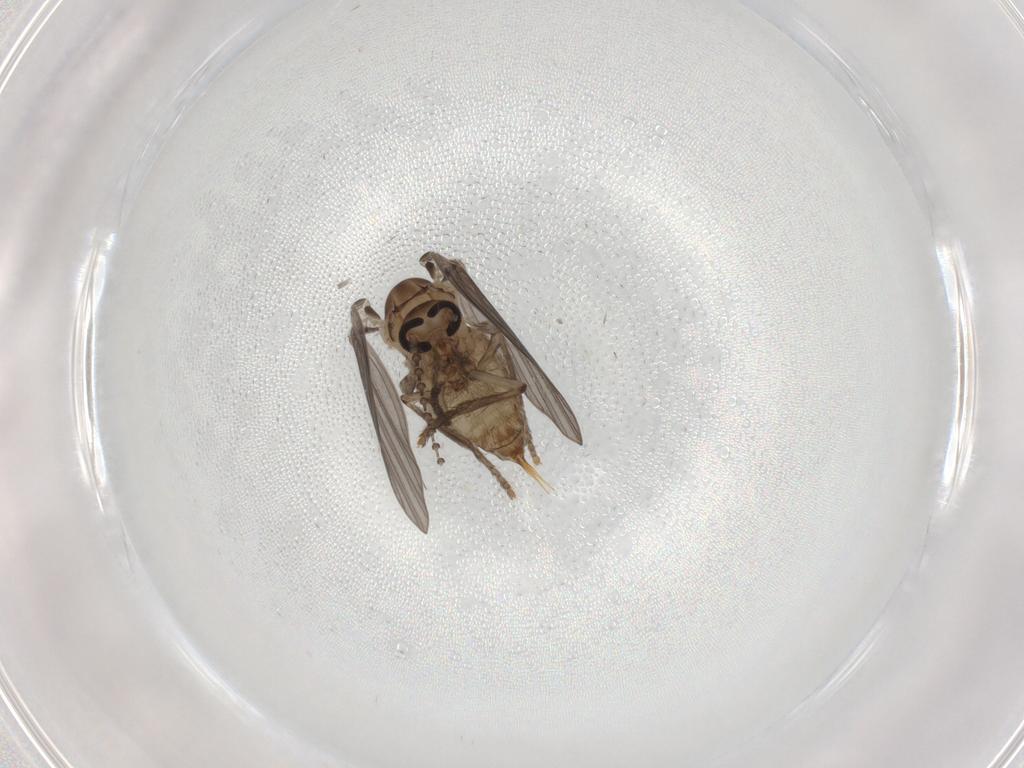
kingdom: Animalia
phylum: Arthropoda
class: Insecta
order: Diptera
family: Psychodidae
